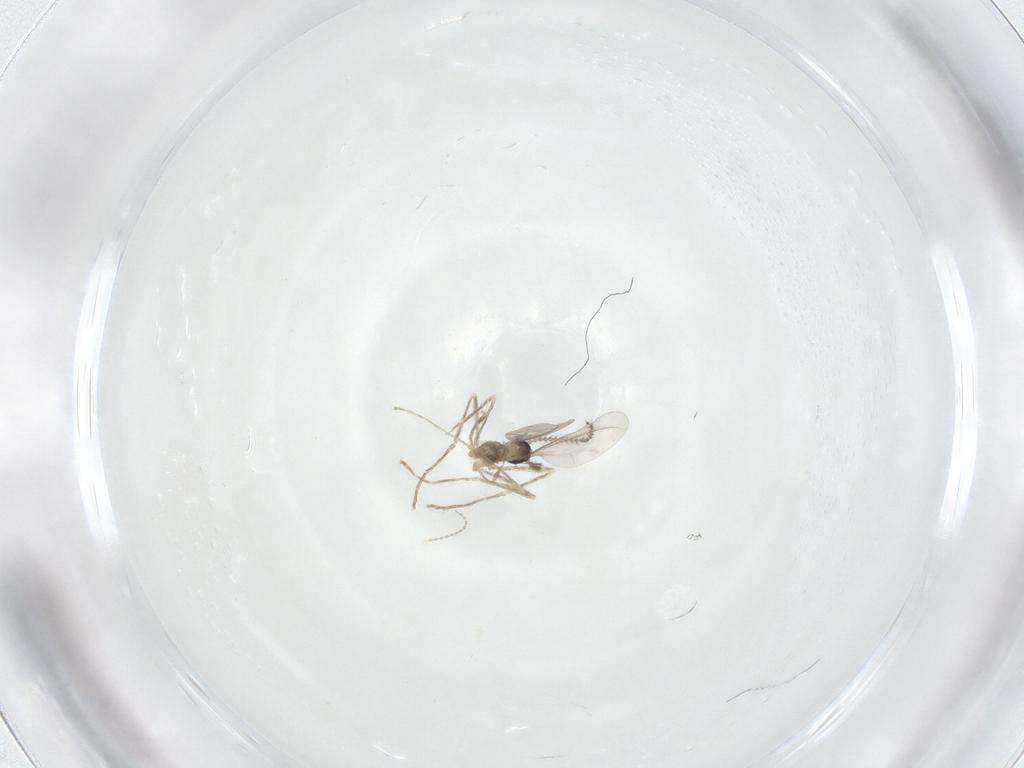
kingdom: Animalia
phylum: Arthropoda
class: Insecta
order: Diptera
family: Cecidomyiidae
